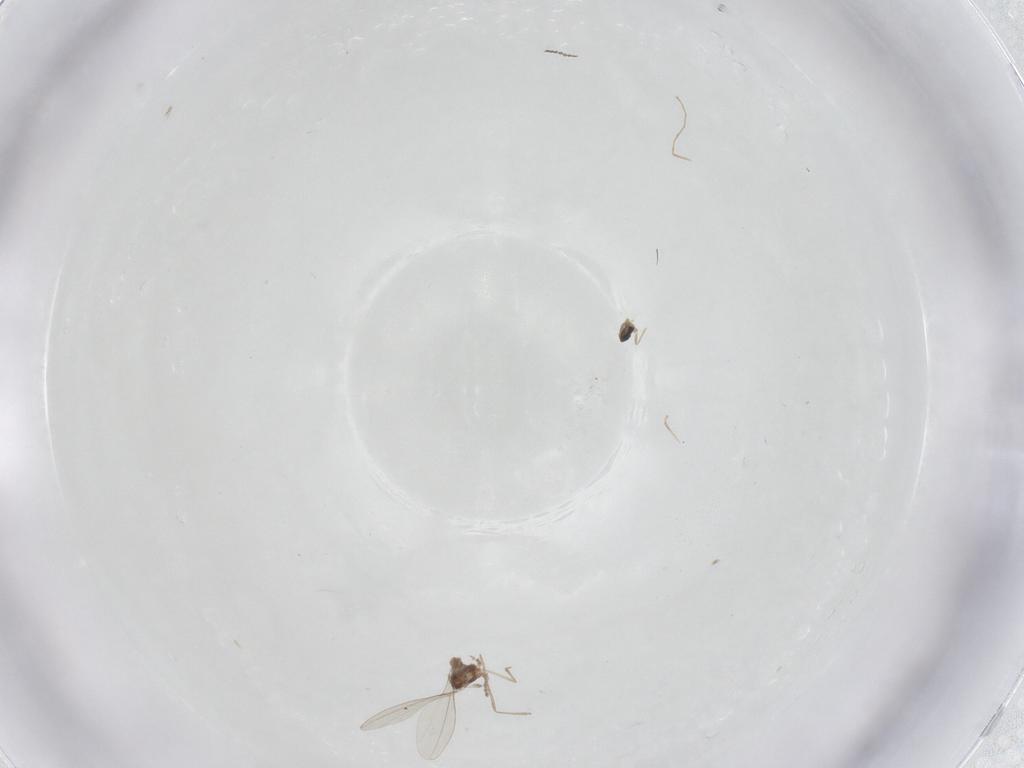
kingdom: Animalia
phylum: Arthropoda
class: Insecta
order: Diptera
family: Cecidomyiidae
